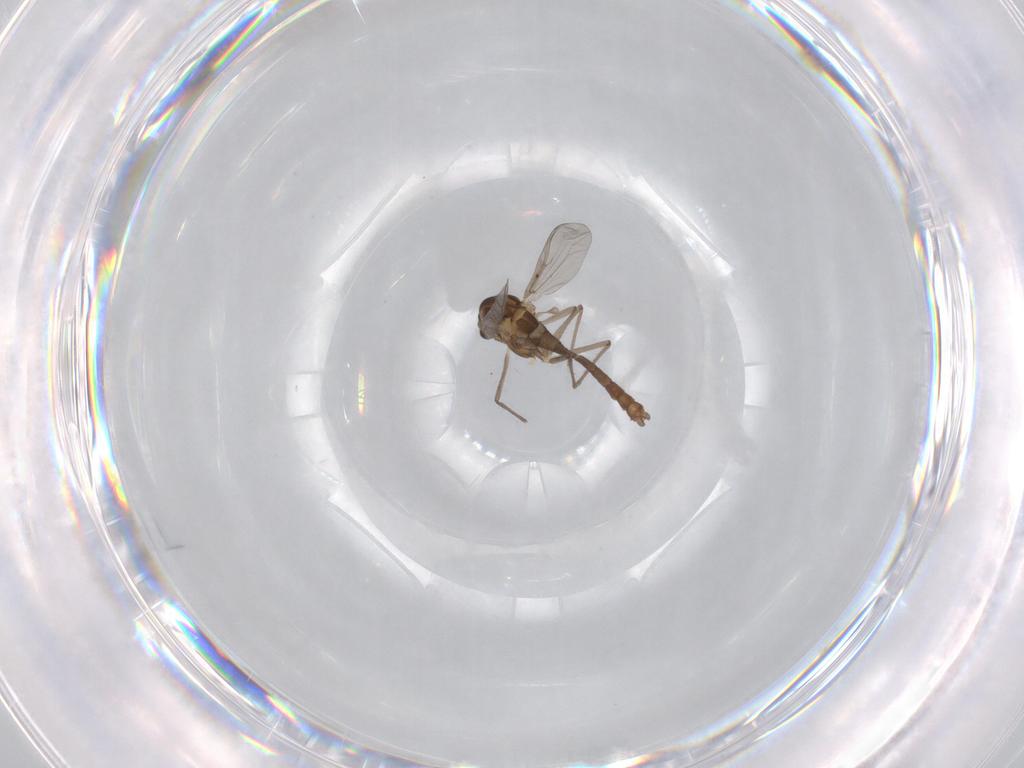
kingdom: Animalia
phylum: Arthropoda
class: Insecta
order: Diptera
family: Chironomidae
